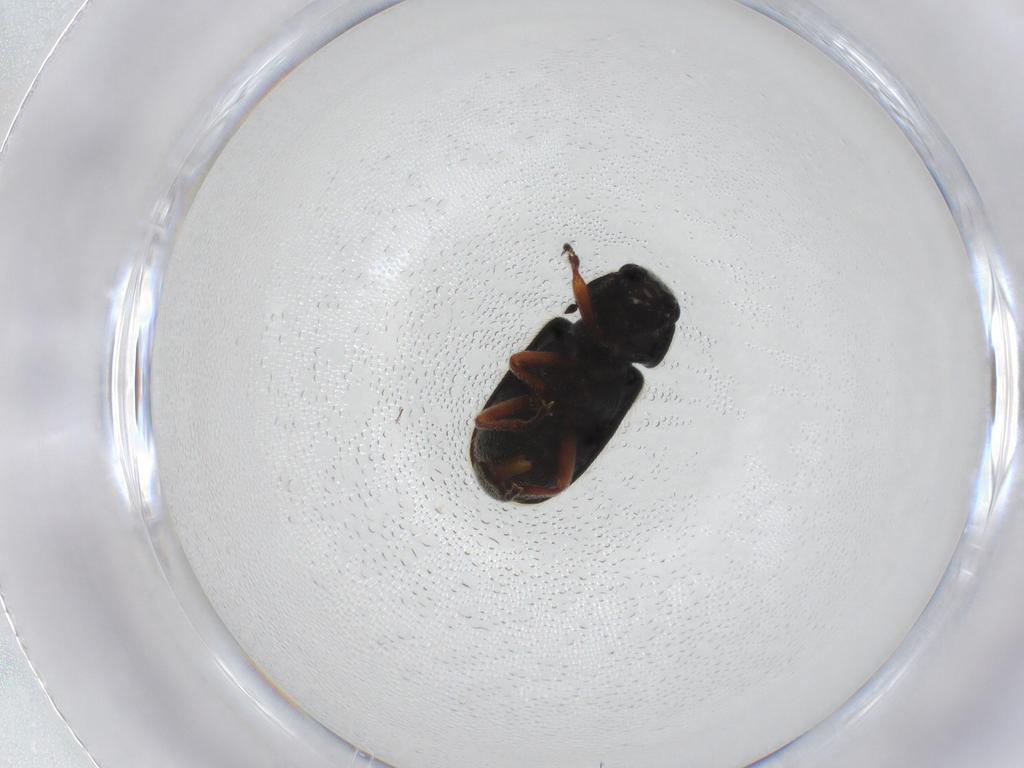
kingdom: Animalia
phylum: Arthropoda
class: Insecta
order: Coleoptera
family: Melyridae
